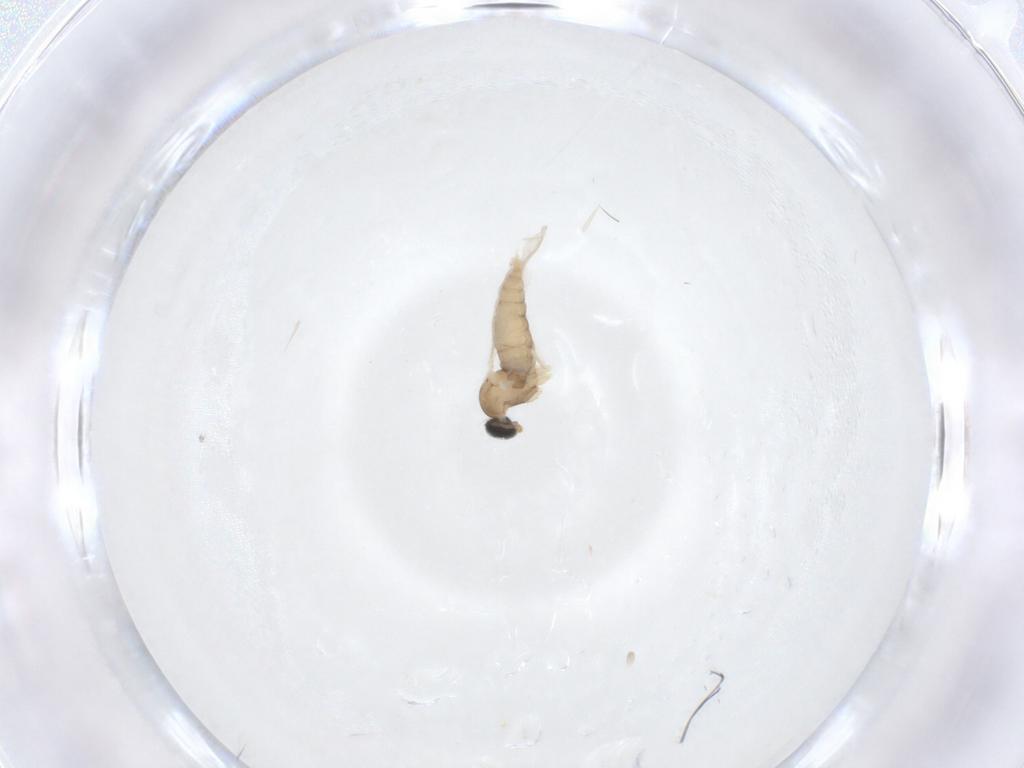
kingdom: Animalia
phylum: Arthropoda
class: Insecta
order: Diptera
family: Cecidomyiidae
